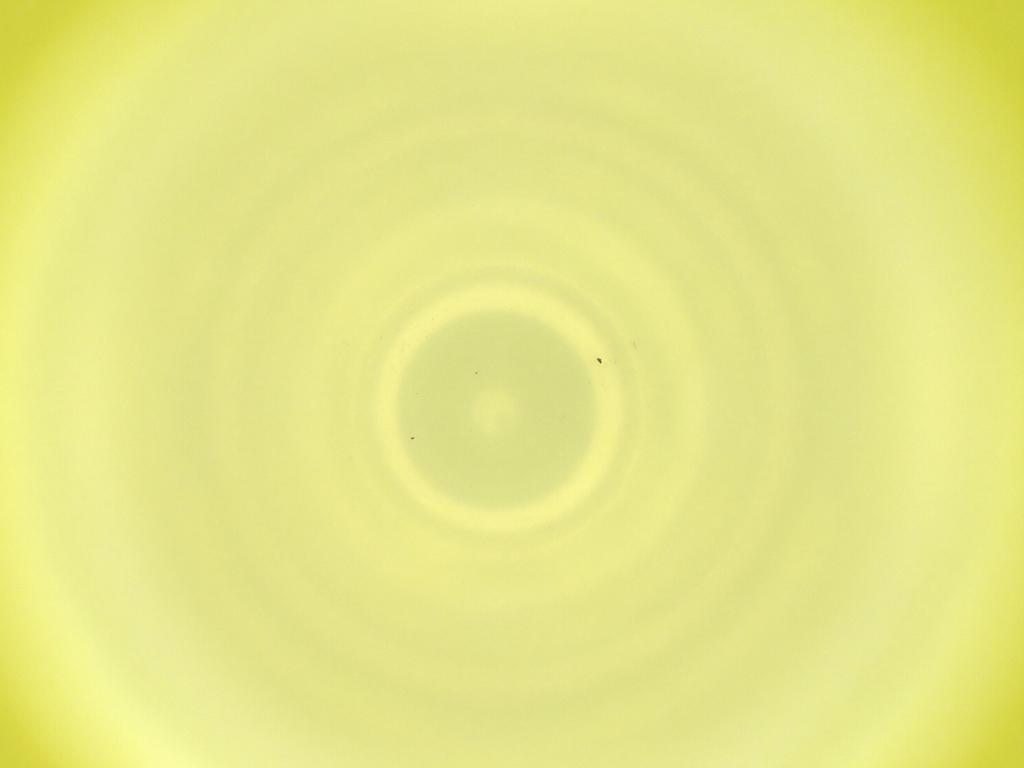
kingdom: Animalia
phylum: Arthropoda
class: Insecta
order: Diptera
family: Cecidomyiidae
